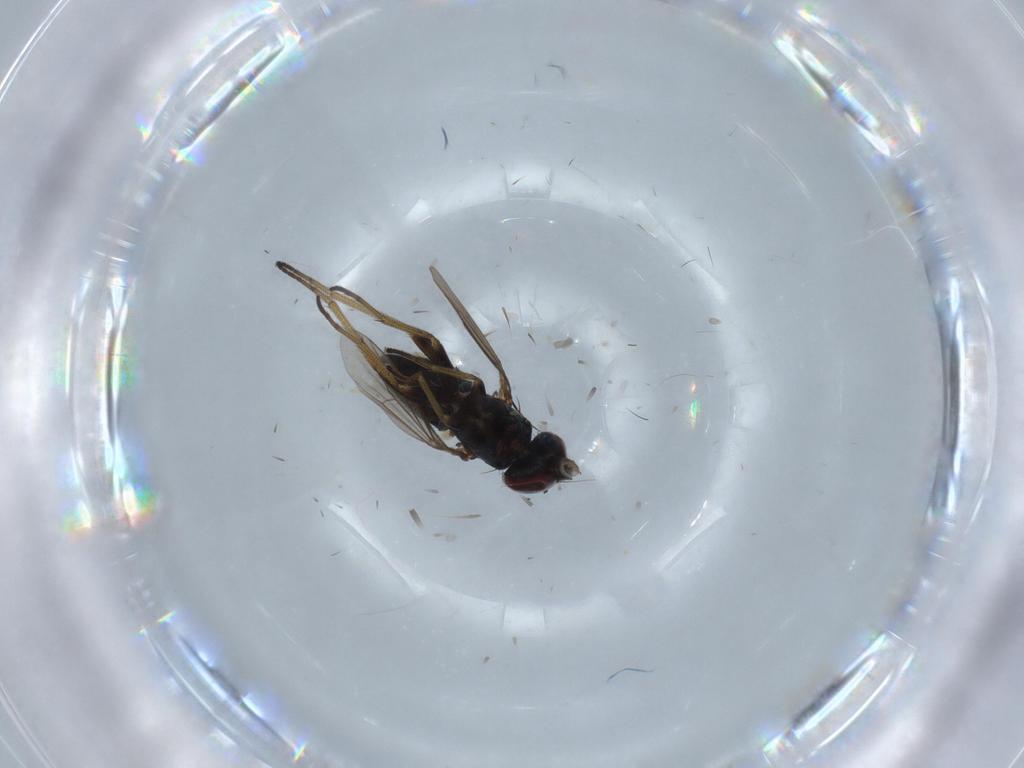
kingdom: Animalia
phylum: Arthropoda
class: Insecta
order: Diptera
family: Dolichopodidae
